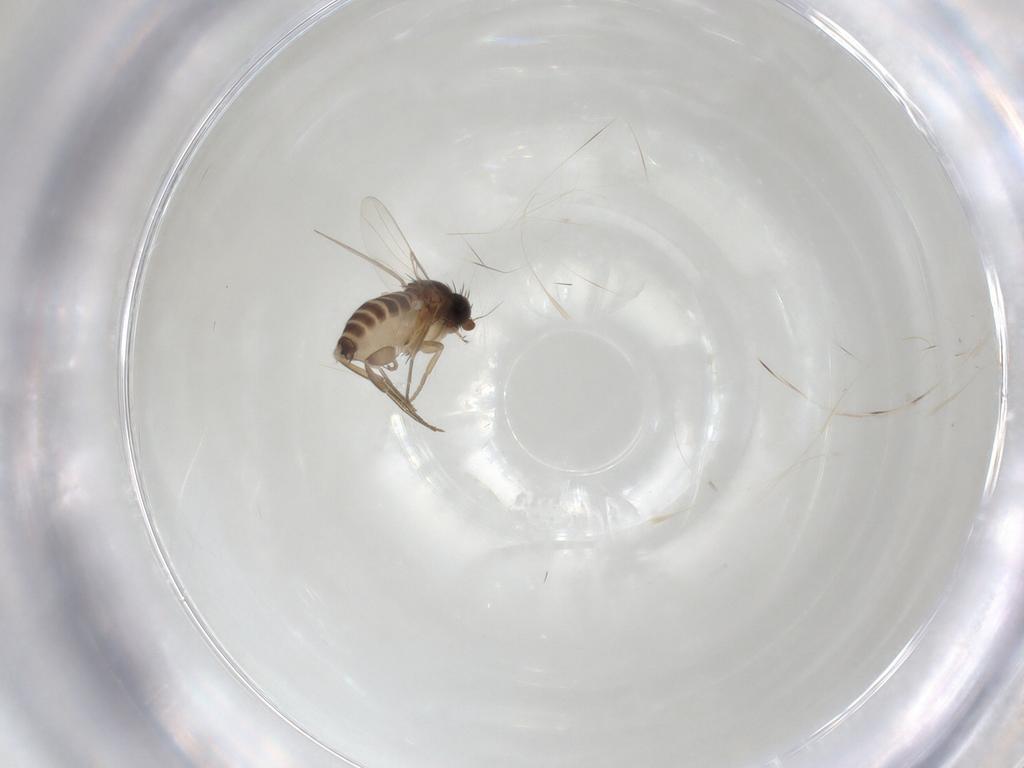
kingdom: Animalia
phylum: Arthropoda
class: Insecta
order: Diptera
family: Phoridae
